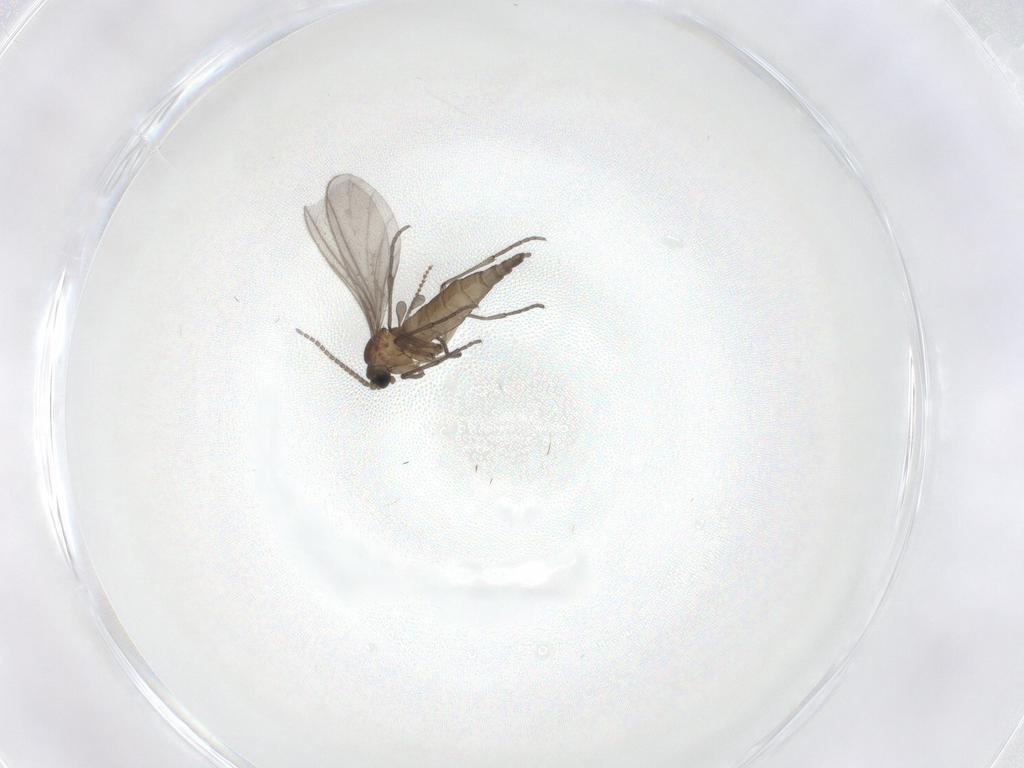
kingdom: Animalia
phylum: Arthropoda
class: Insecta
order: Diptera
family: Sciaridae
